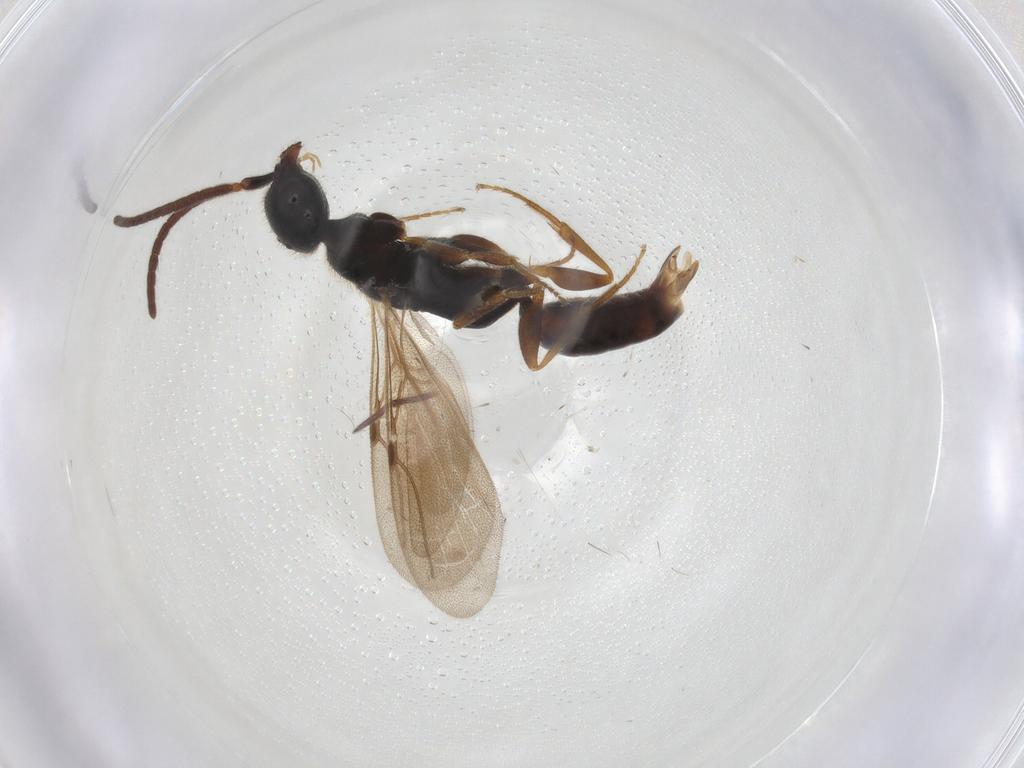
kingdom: Animalia
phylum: Arthropoda
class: Insecta
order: Hymenoptera
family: Bethylidae
